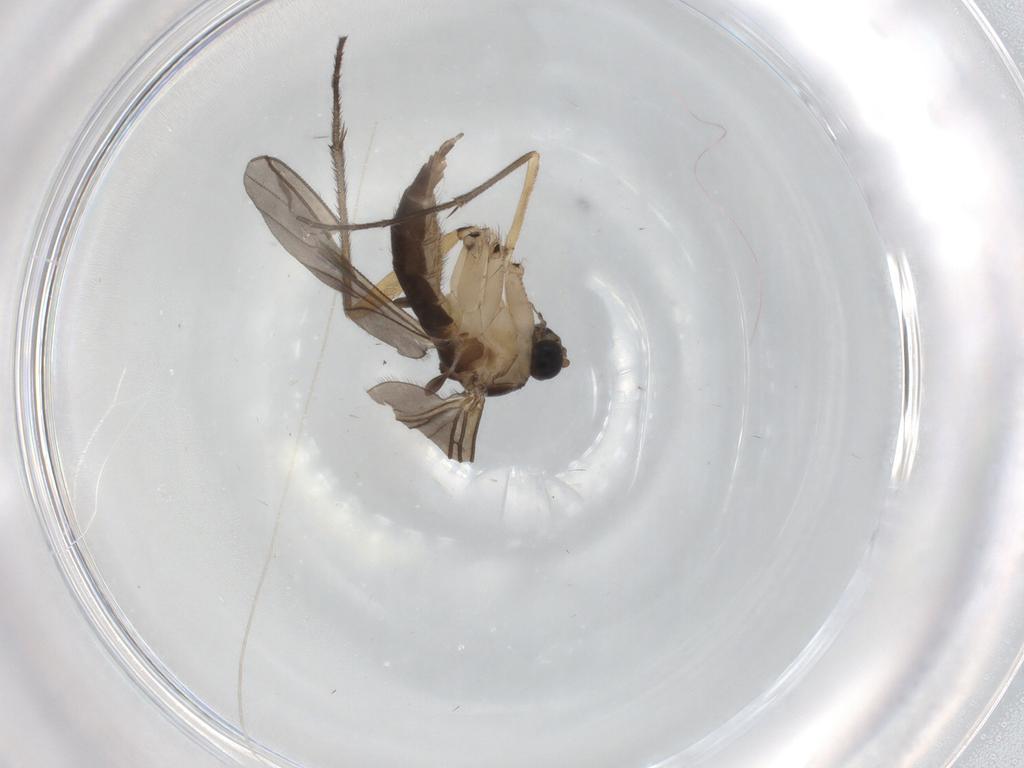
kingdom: Animalia
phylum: Arthropoda
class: Insecta
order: Diptera
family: Sciaridae
